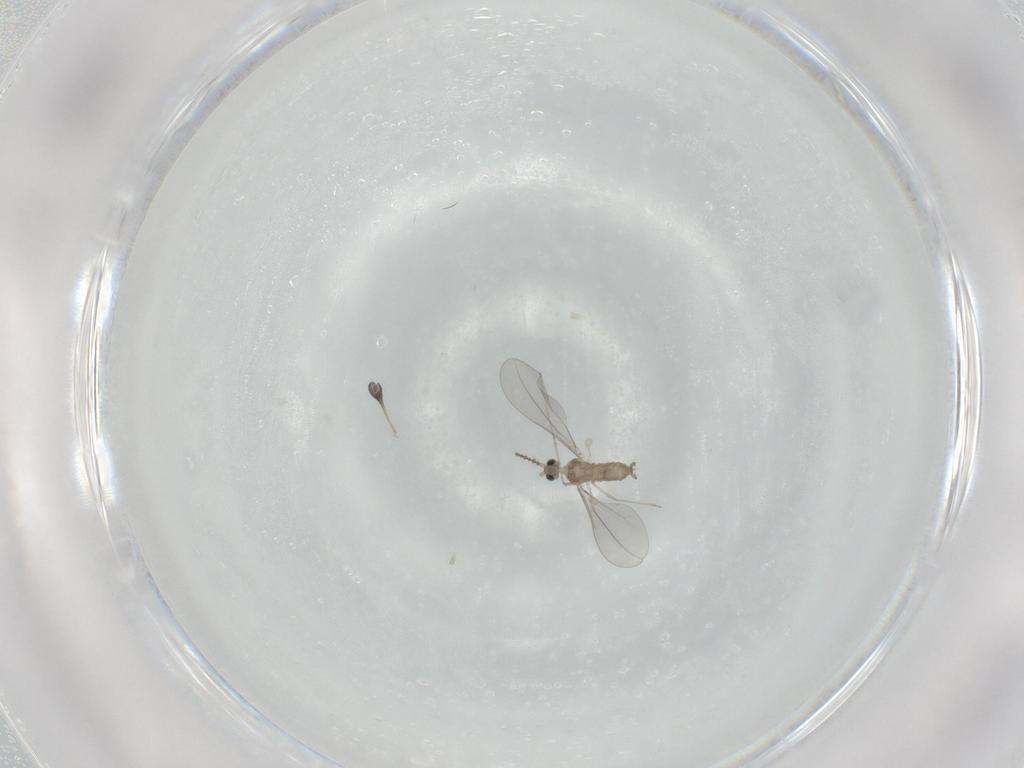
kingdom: Animalia
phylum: Arthropoda
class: Insecta
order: Diptera
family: Sciaridae
